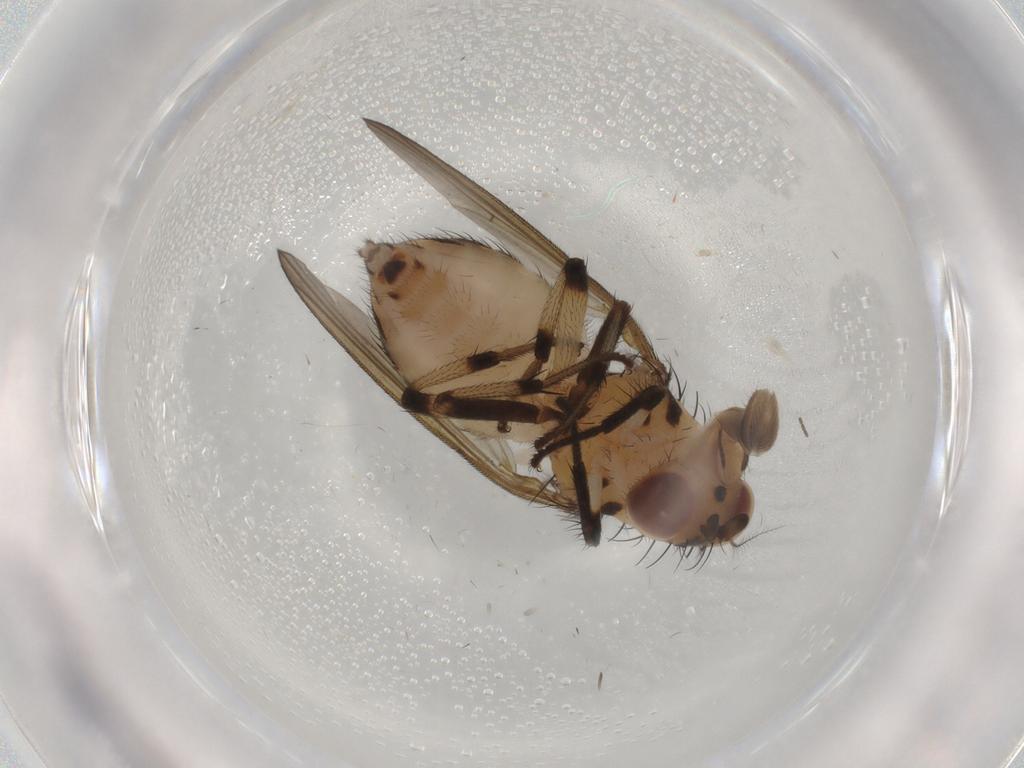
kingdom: Animalia
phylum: Arthropoda
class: Insecta
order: Diptera
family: Lauxaniidae
